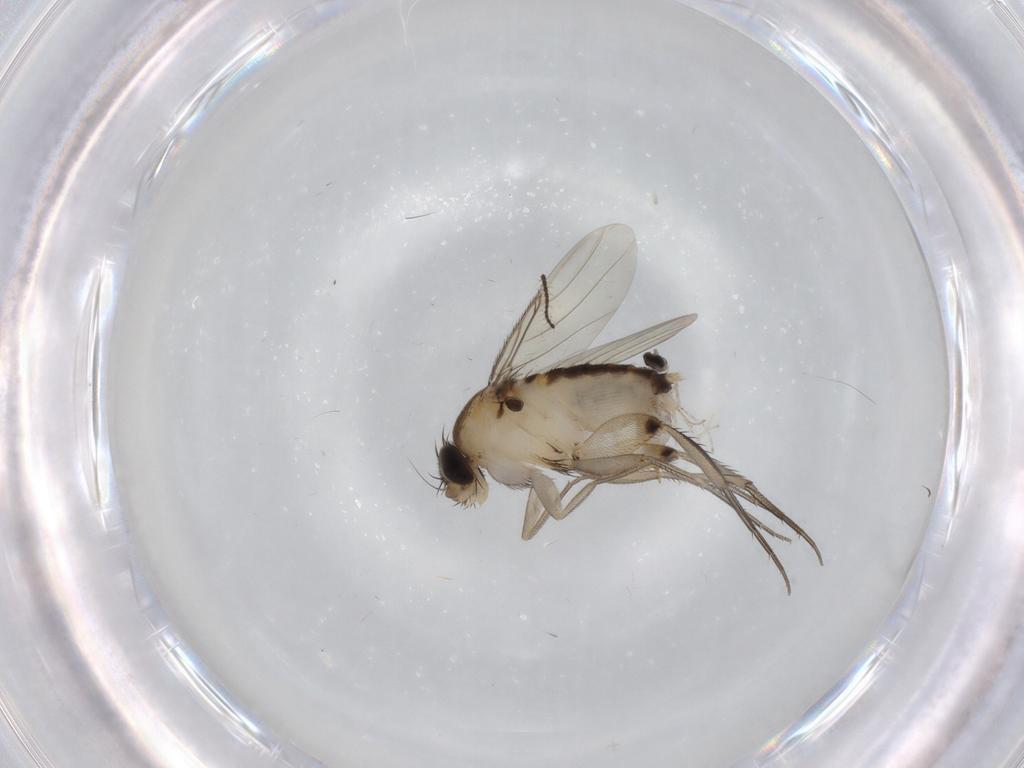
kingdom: Animalia
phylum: Arthropoda
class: Insecta
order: Diptera
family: Phoridae
